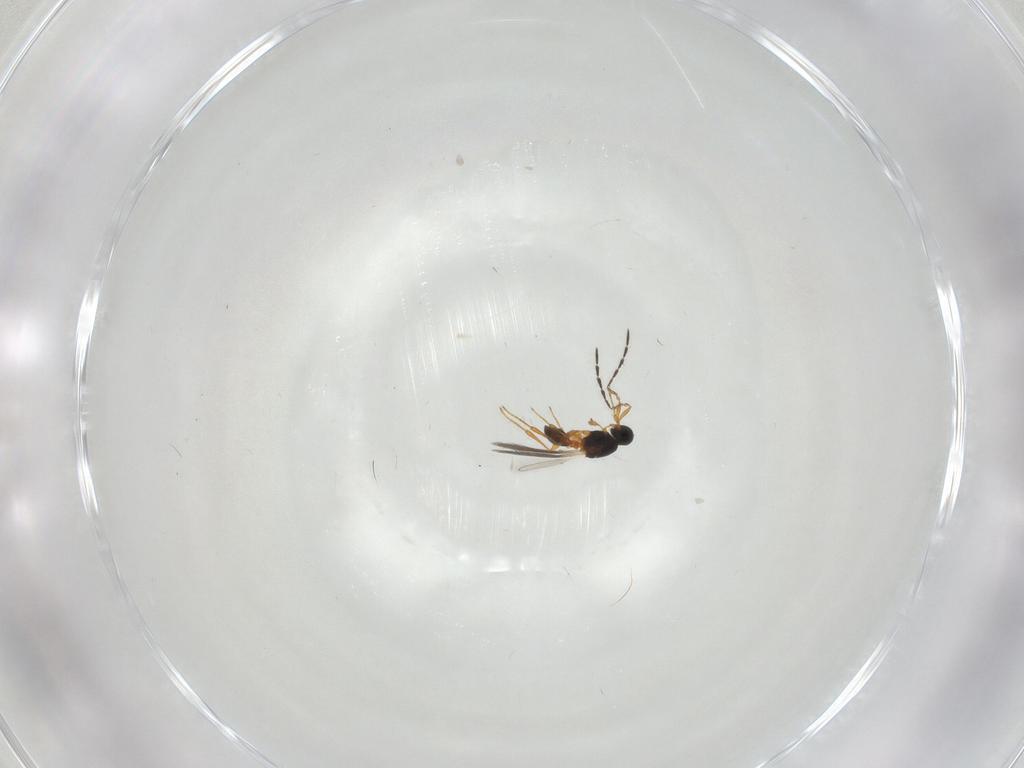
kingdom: Animalia
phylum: Arthropoda
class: Insecta
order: Hymenoptera
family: Platygastridae
